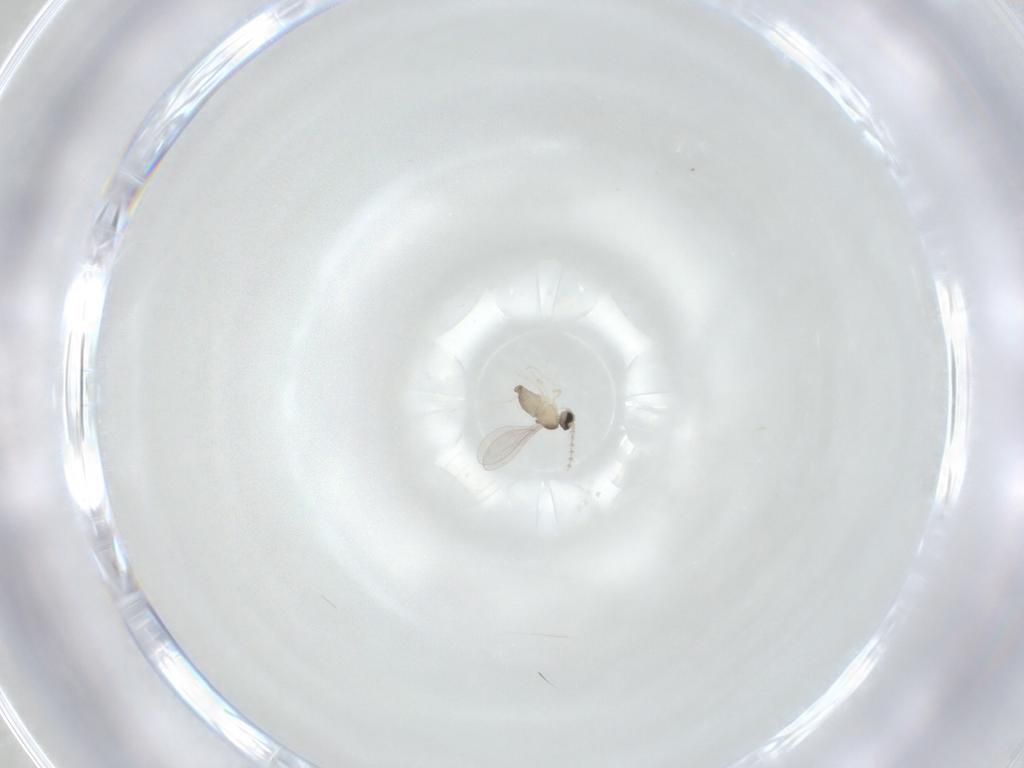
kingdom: Animalia
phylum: Arthropoda
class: Insecta
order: Diptera
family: Cecidomyiidae
